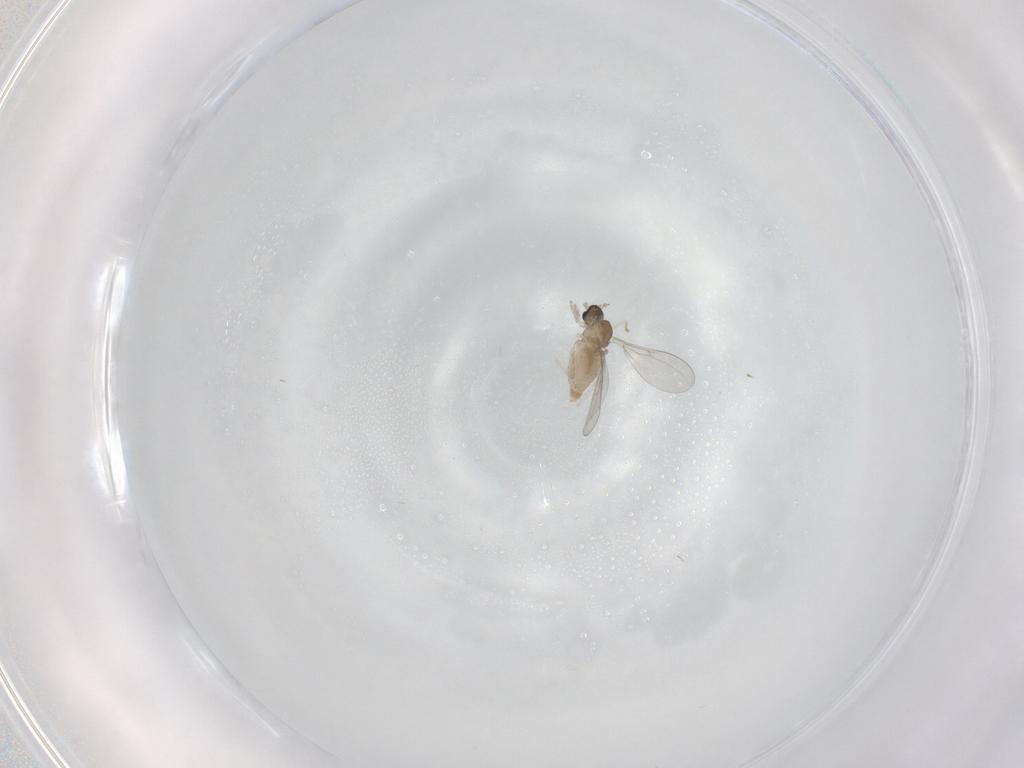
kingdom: Animalia
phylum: Arthropoda
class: Insecta
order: Diptera
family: Cecidomyiidae
